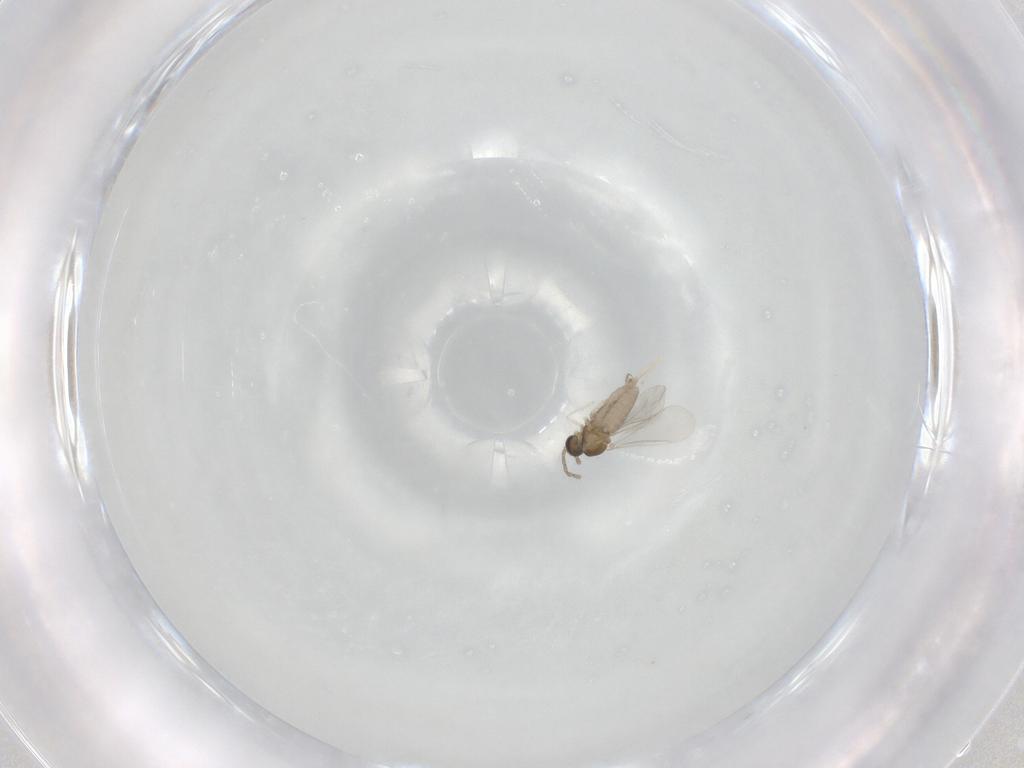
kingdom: Animalia
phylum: Arthropoda
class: Insecta
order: Diptera
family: Cecidomyiidae
